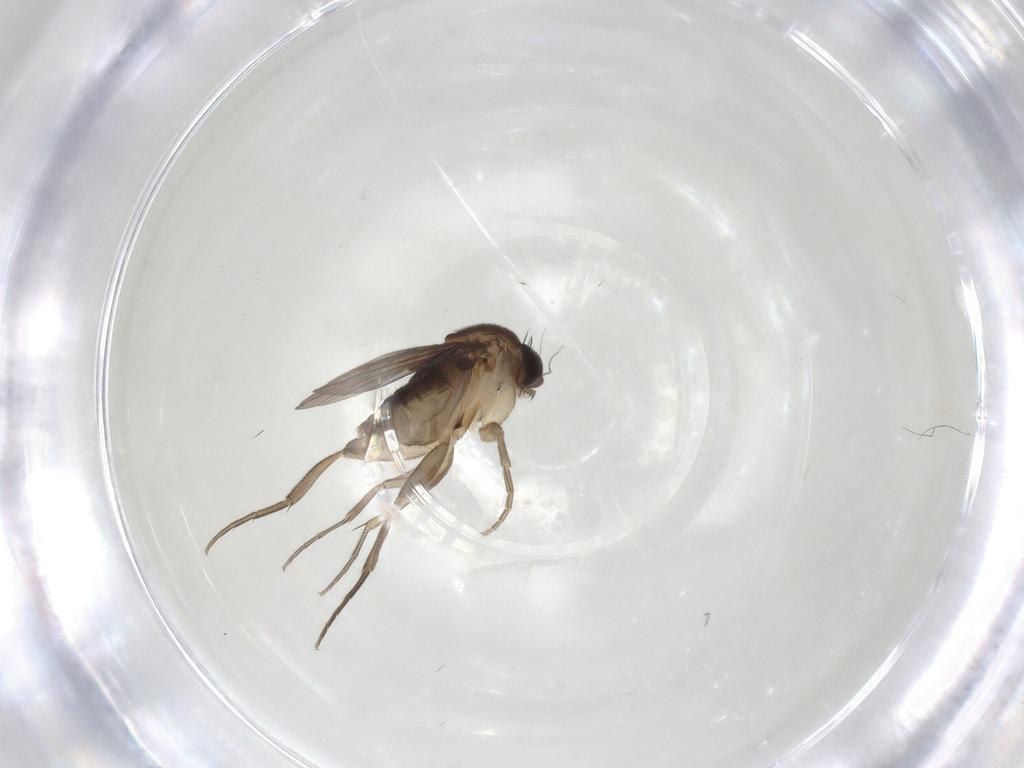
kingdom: Animalia
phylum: Arthropoda
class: Insecta
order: Diptera
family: Phoridae
